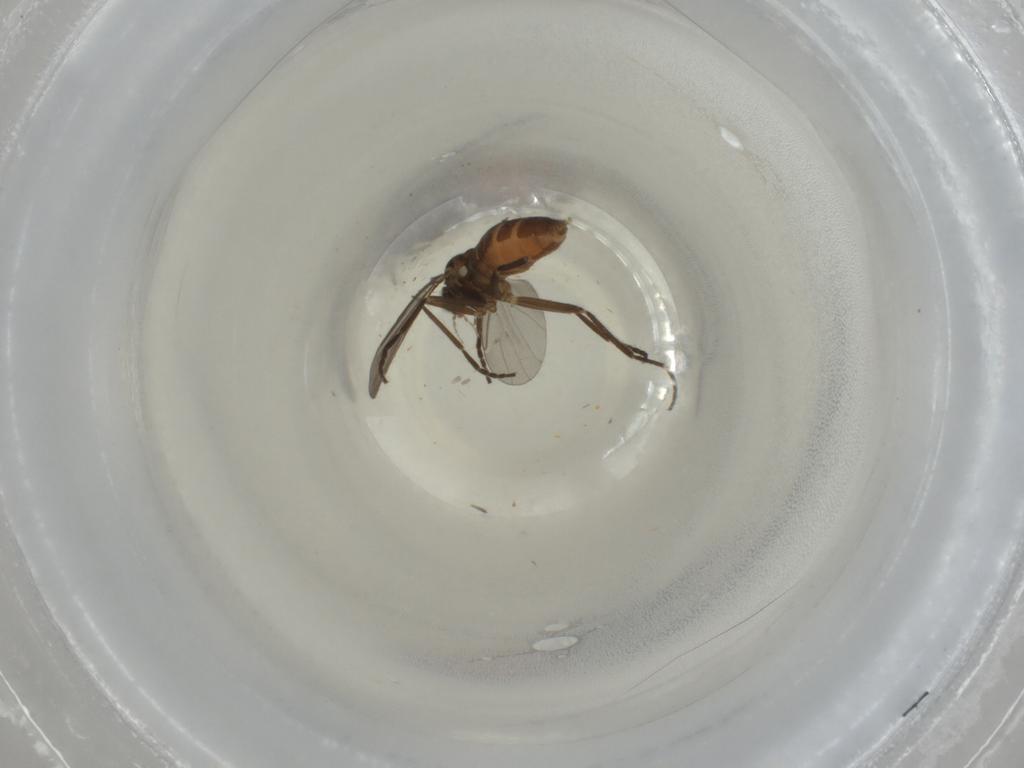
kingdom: Animalia
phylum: Arthropoda
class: Insecta
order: Diptera
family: Cecidomyiidae
